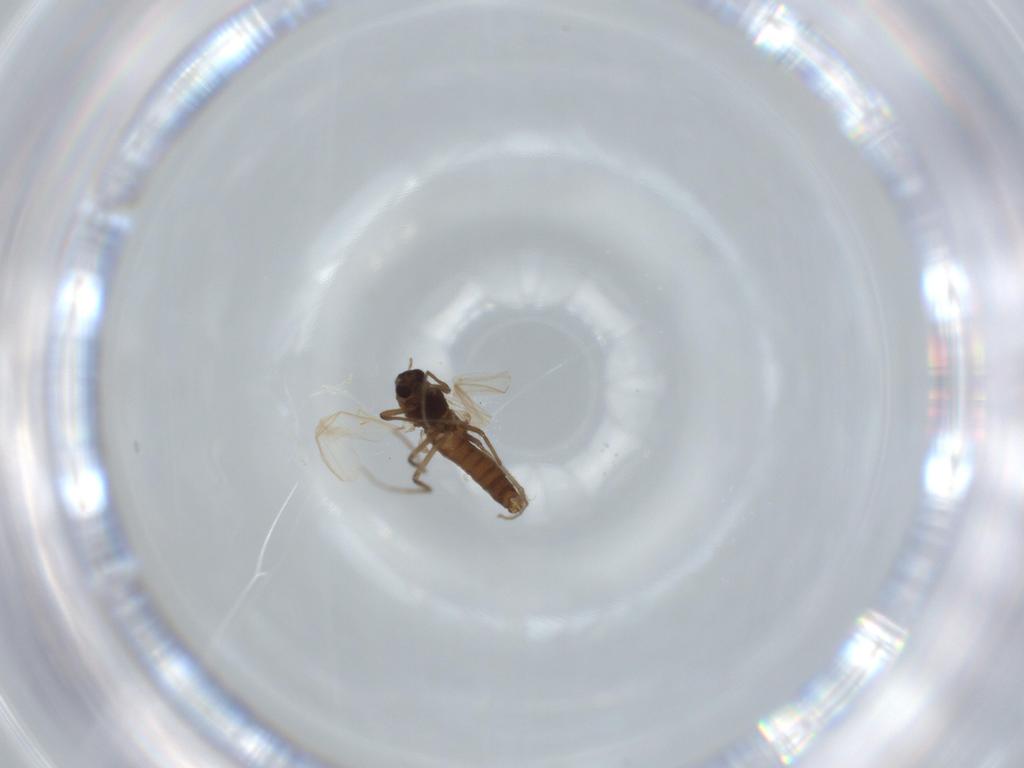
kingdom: Animalia
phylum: Arthropoda
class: Insecta
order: Diptera
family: Chironomidae
